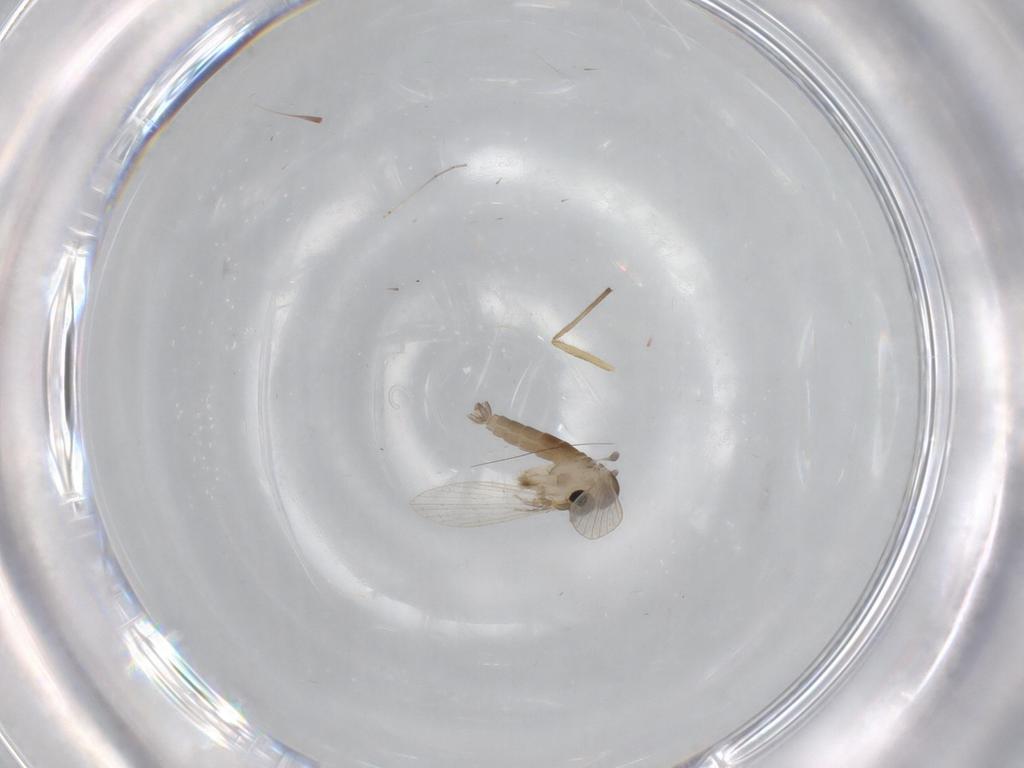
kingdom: Animalia
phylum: Arthropoda
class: Insecta
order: Diptera
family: Psychodidae
